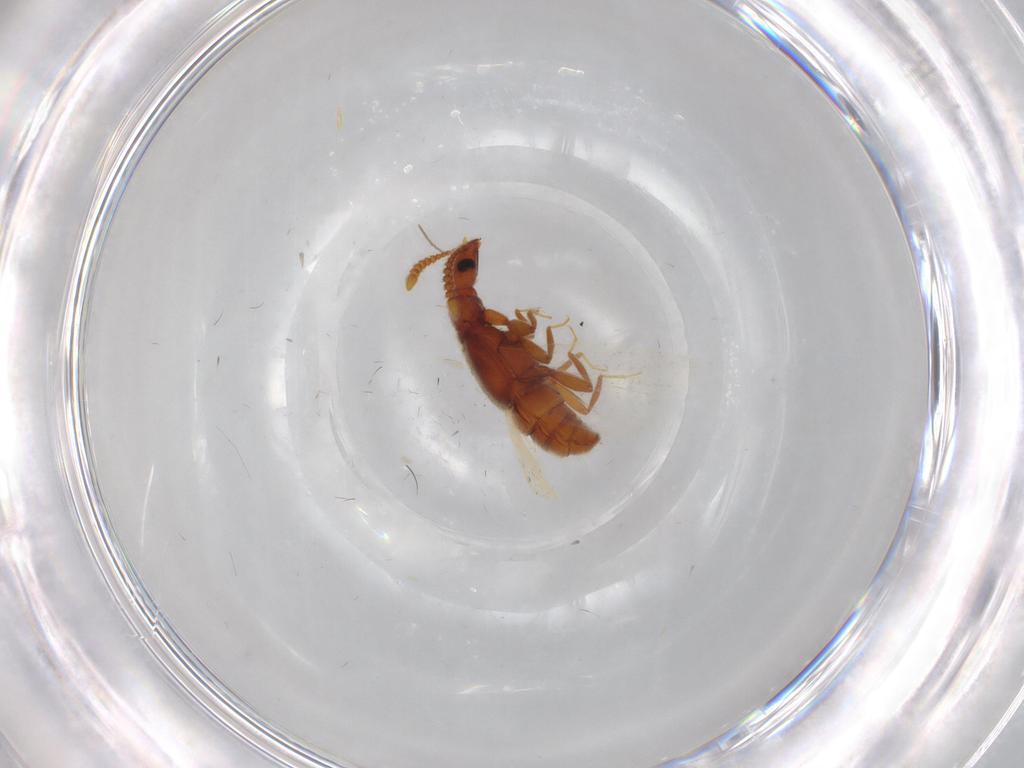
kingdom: Animalia
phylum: Arthropoda
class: Insecta
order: Coleoptera
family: Elateridae
